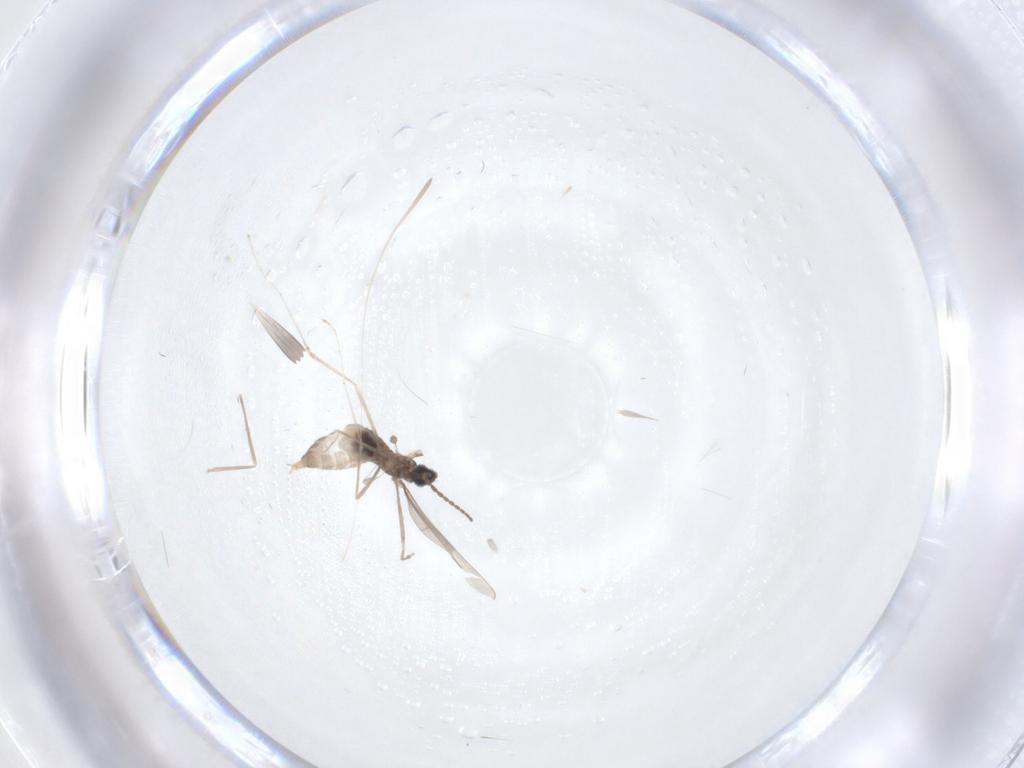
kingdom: Animalia
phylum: Arthropoda
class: Insecta
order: Diptera
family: Cecidomyiidae
